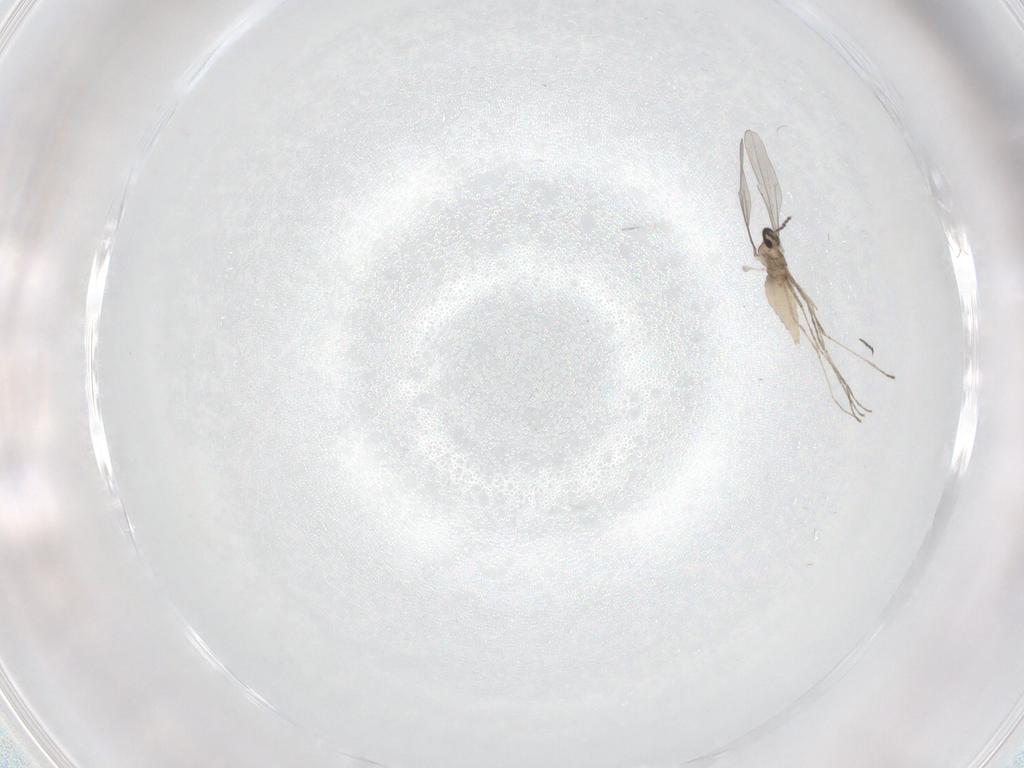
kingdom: Animalia
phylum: Arthropoda
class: Insecta
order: Diptera
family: Cecidomyiidae
